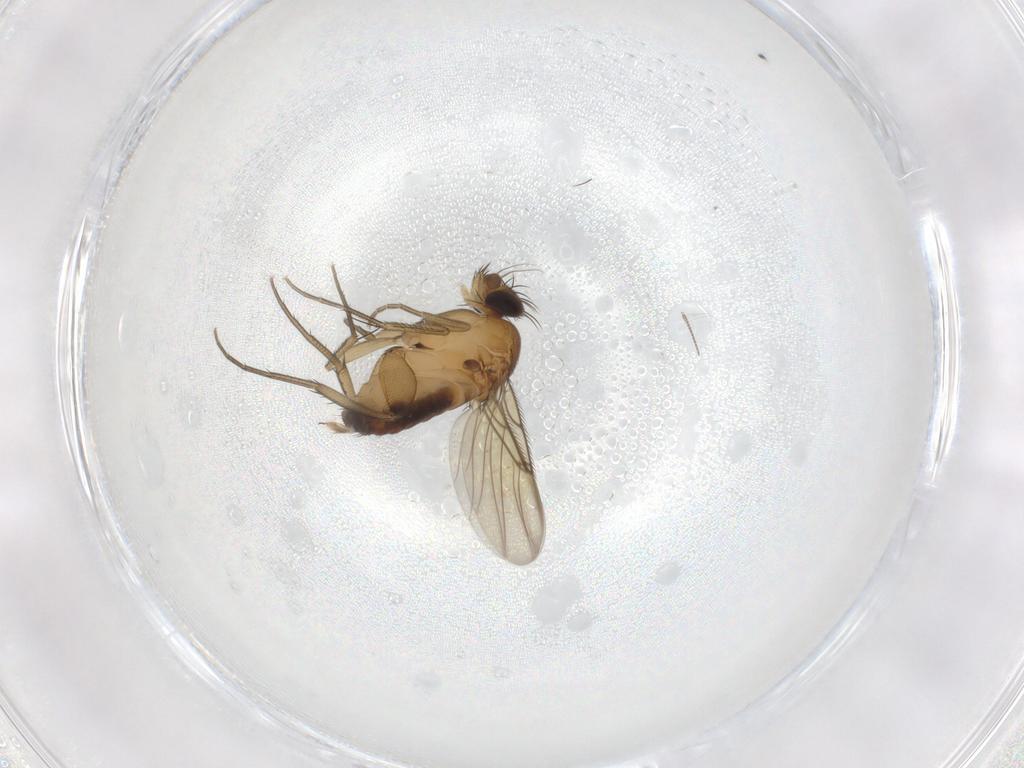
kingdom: Animalia
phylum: Arthropoda
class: Insecta
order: Diptera
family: Phoridae
